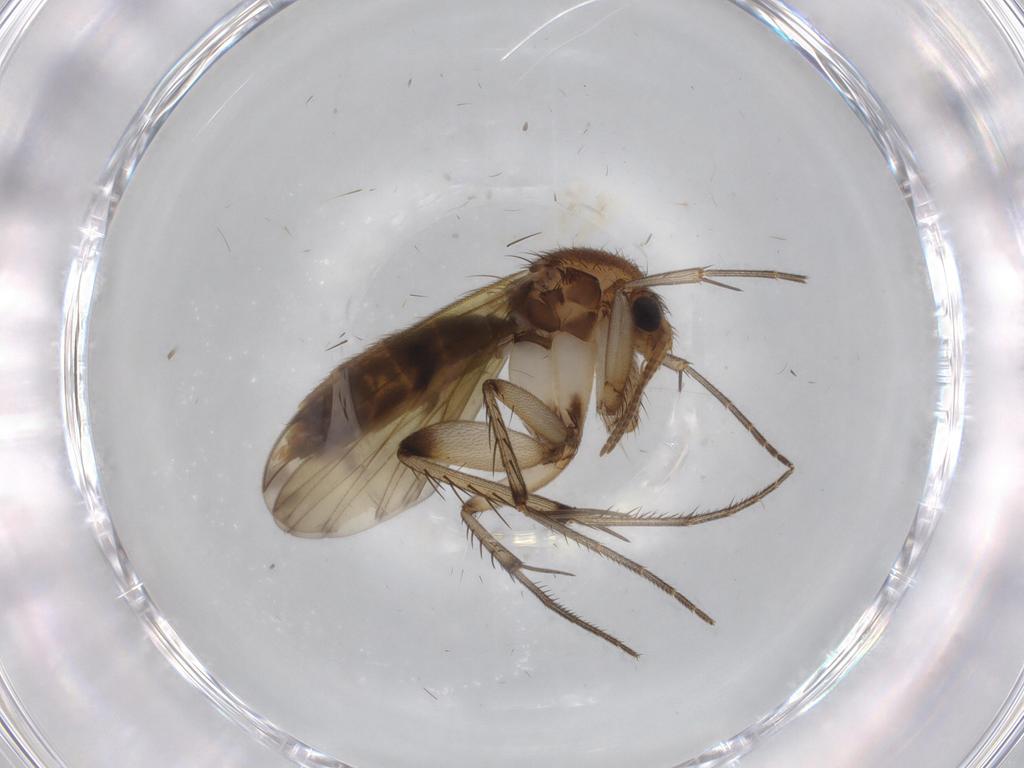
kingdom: Animalia
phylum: Arthropoda
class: Insecta
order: Diptera
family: Mycetophilidae
